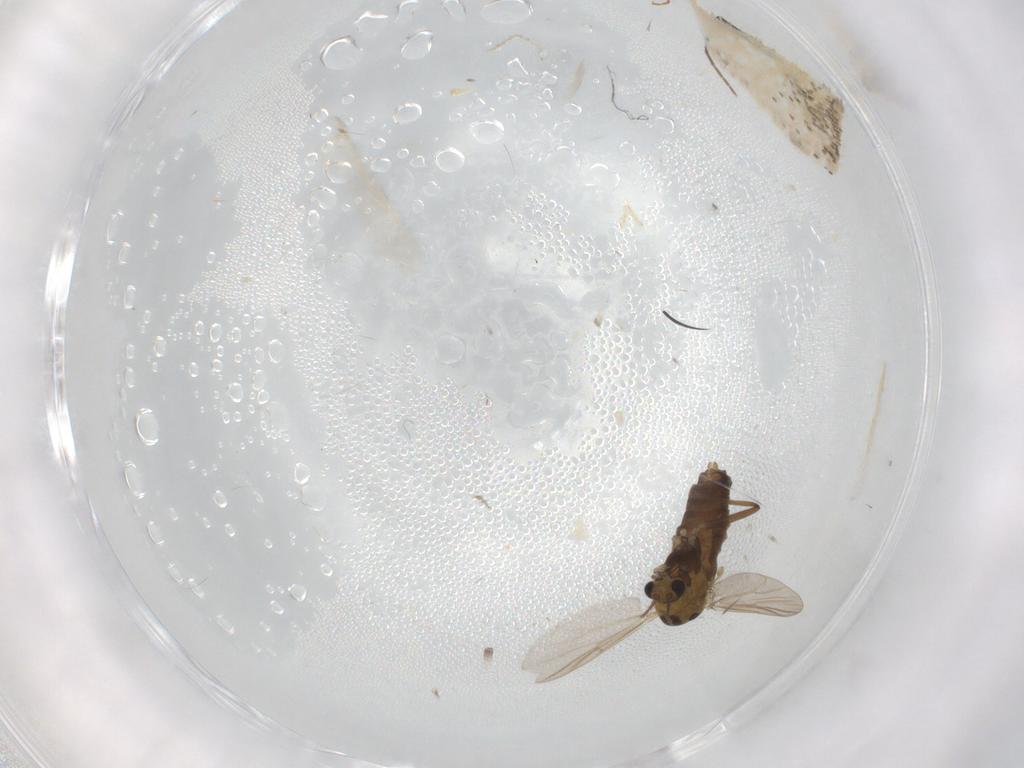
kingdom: Animalia
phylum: Arthropoda
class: Insecta
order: Diptera
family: Chironomidae
